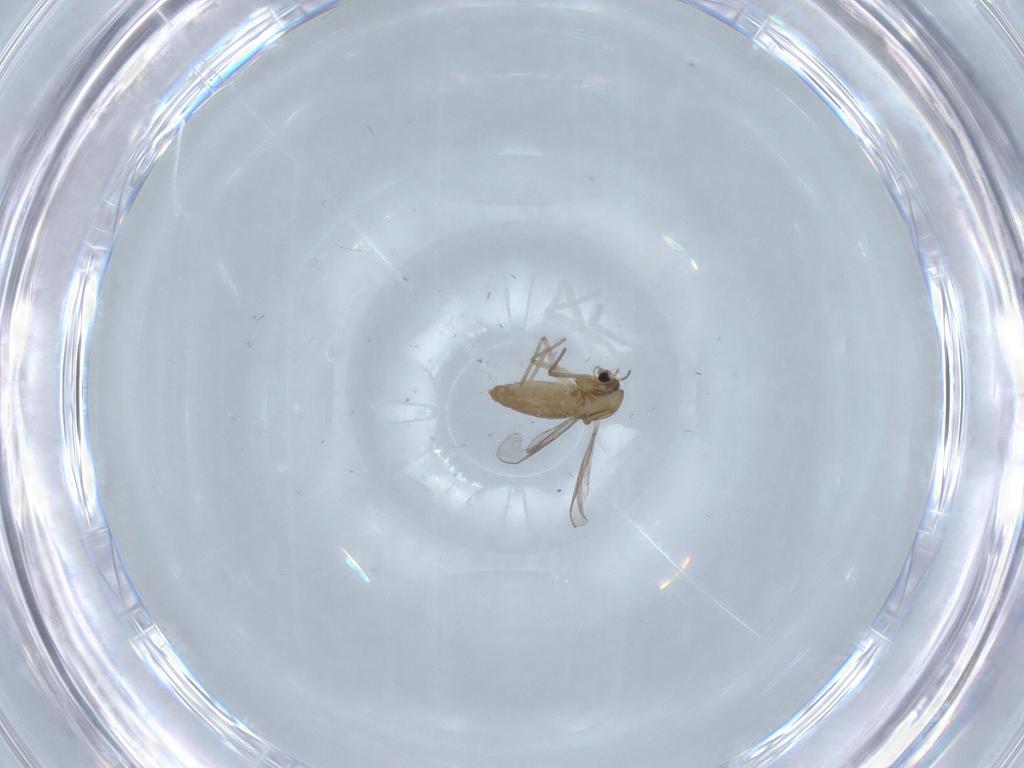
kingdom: Animalia
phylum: Arthropoda
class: Insecta
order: Diptera
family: Chironomidae
